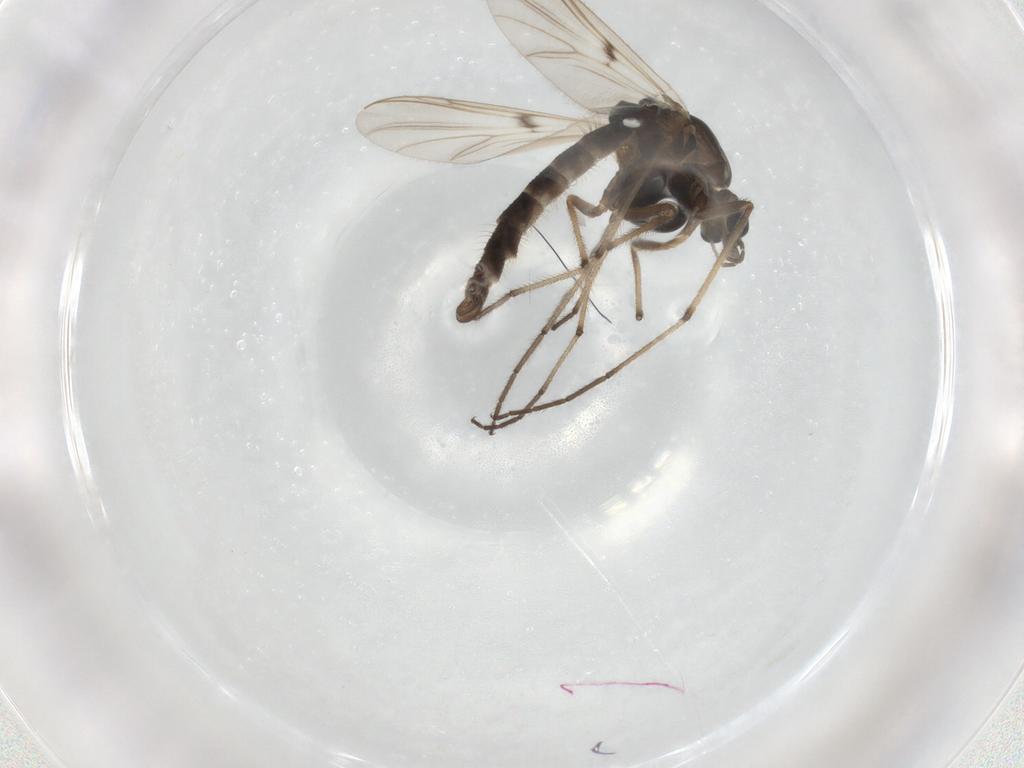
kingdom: Animalia
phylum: Arthropoda
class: Insecta
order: Diptera
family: Chironomidae
